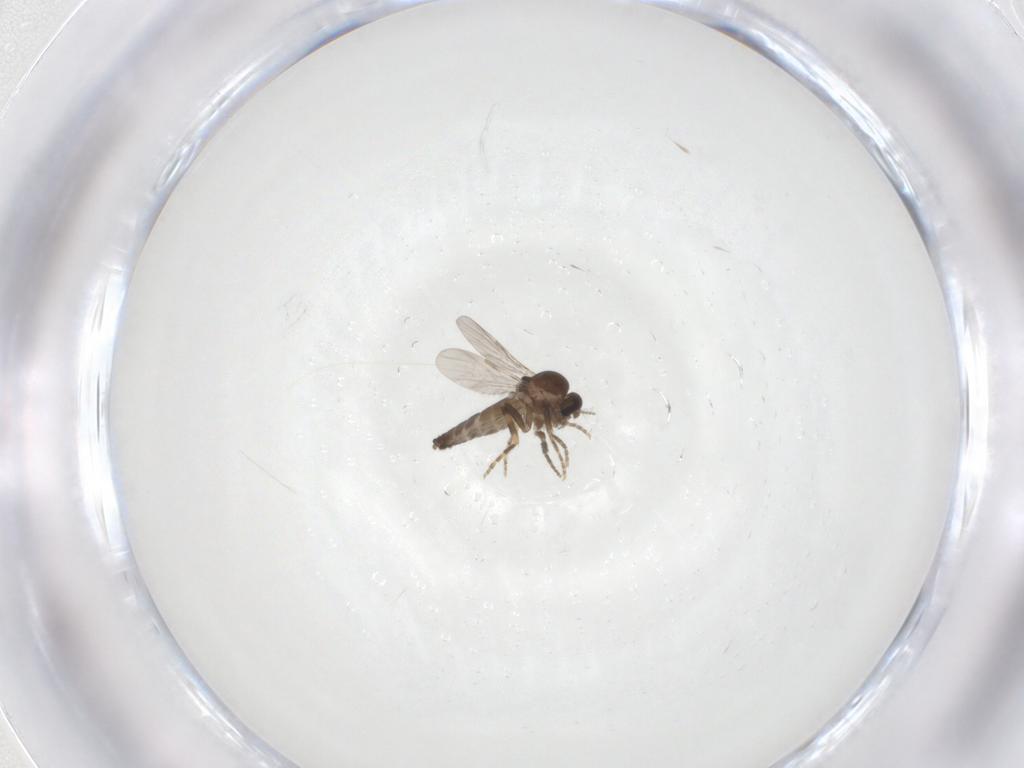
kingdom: Animalia
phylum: Arthropoda
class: Insecta
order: Diptera
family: Ceratopogonidae
